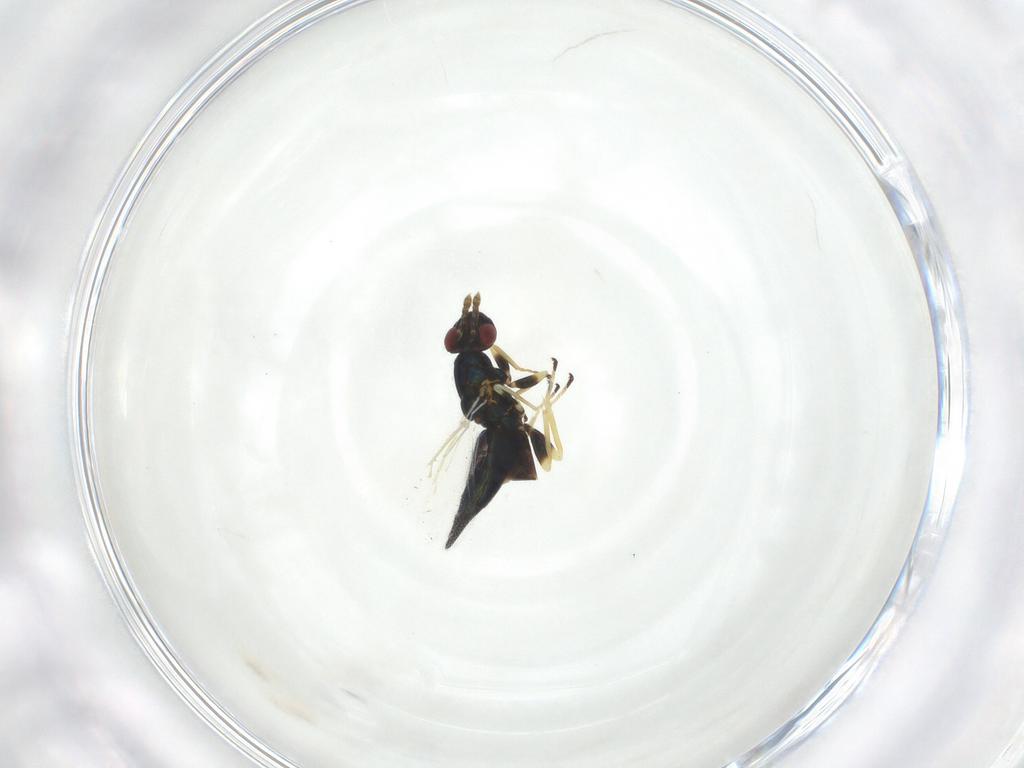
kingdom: Animalia
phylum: Arthropoda
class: Insecta
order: Hymenoptera
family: Eulophidae
